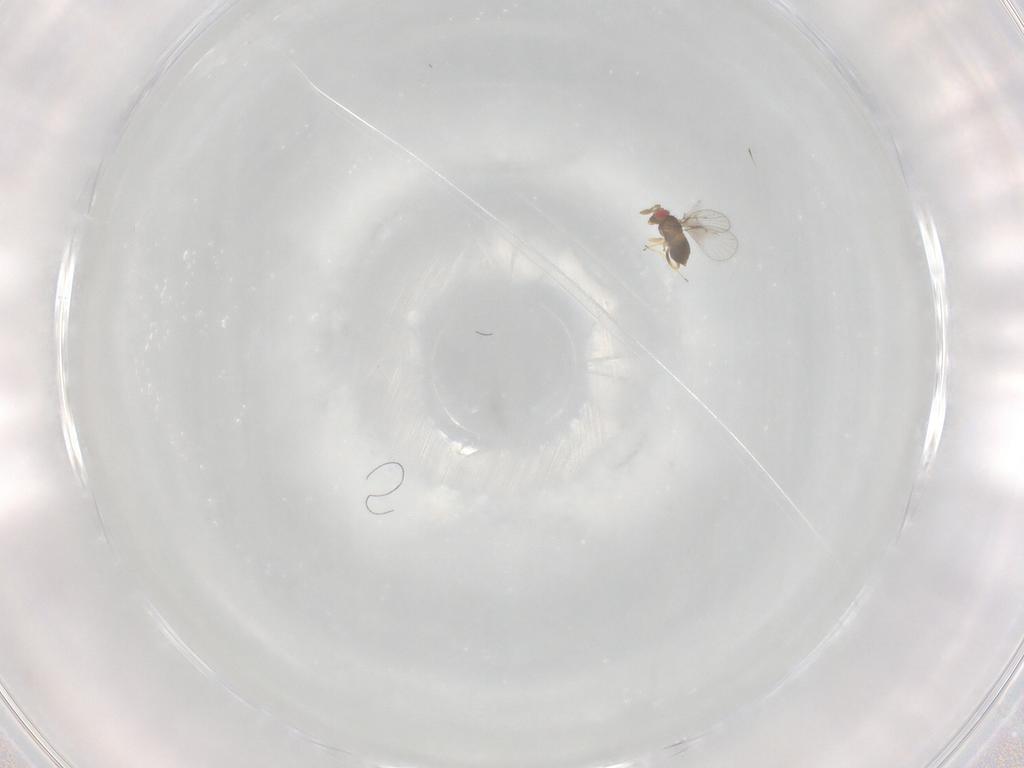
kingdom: Animalia
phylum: Arthropoda
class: Insecta
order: Hymenoptera
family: Trichogrammatidae
